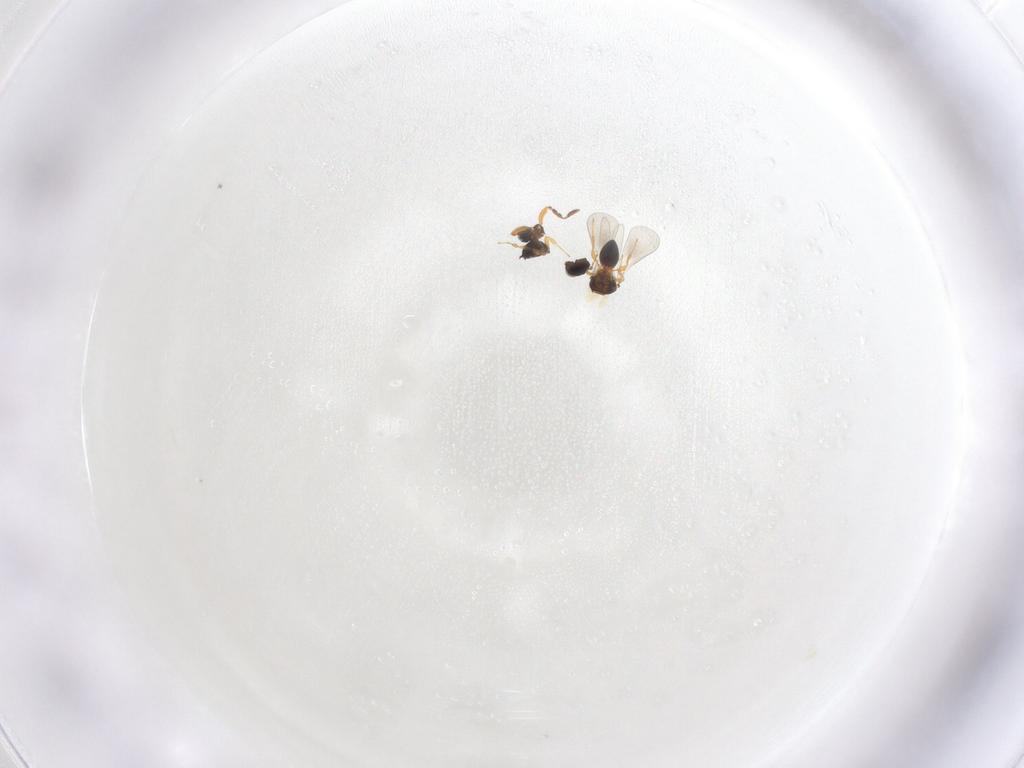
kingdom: Animalia
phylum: Arthropoda
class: Insecta
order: Hymenoptera
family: Platygastridae
